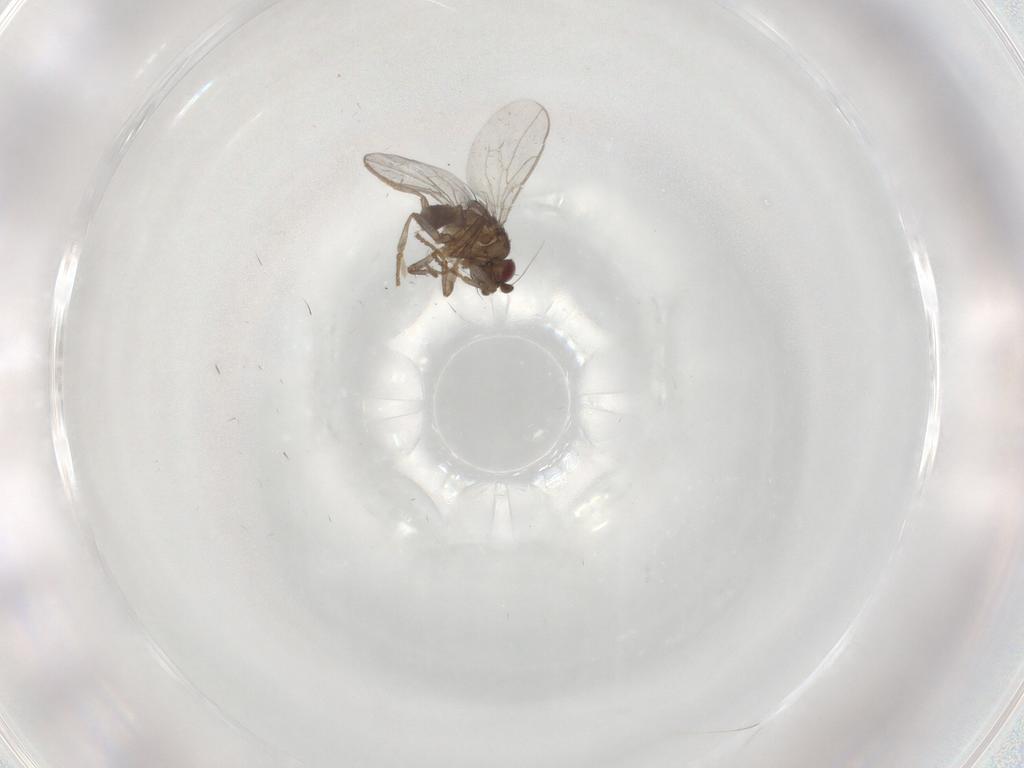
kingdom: Animalia
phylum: Arthropoda
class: Insecta
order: Diptera
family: Sphaeroceridae
